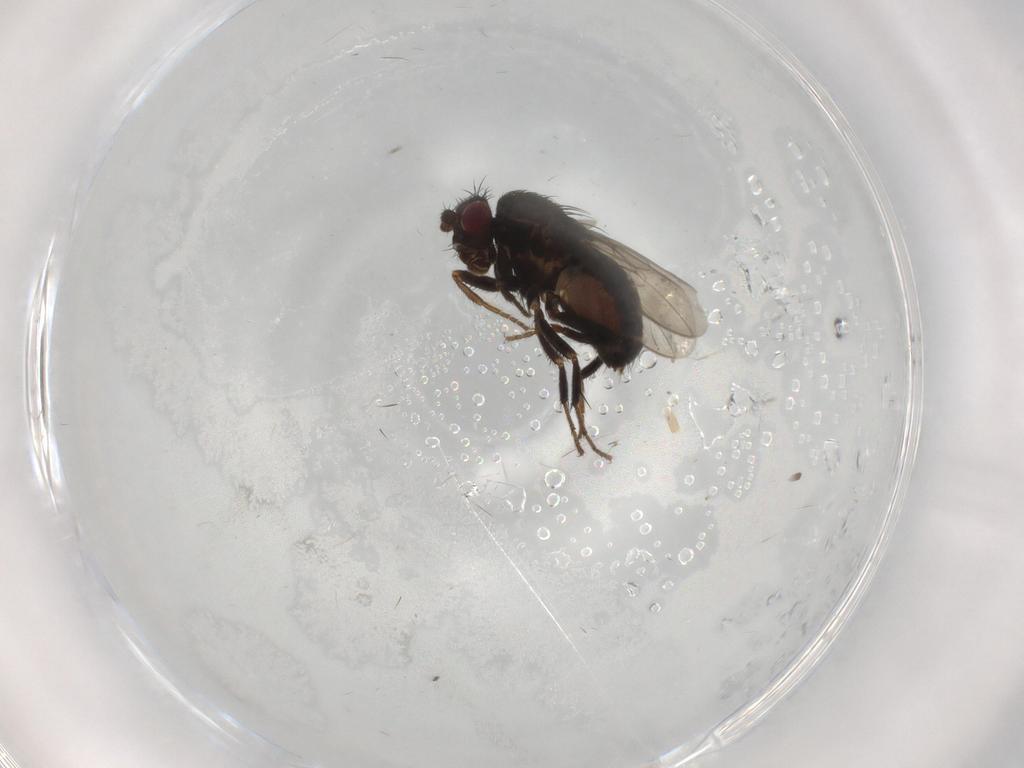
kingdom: Animalia
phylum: Arthropoda
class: Insecta
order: Diptera
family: Sphaeroceridae
